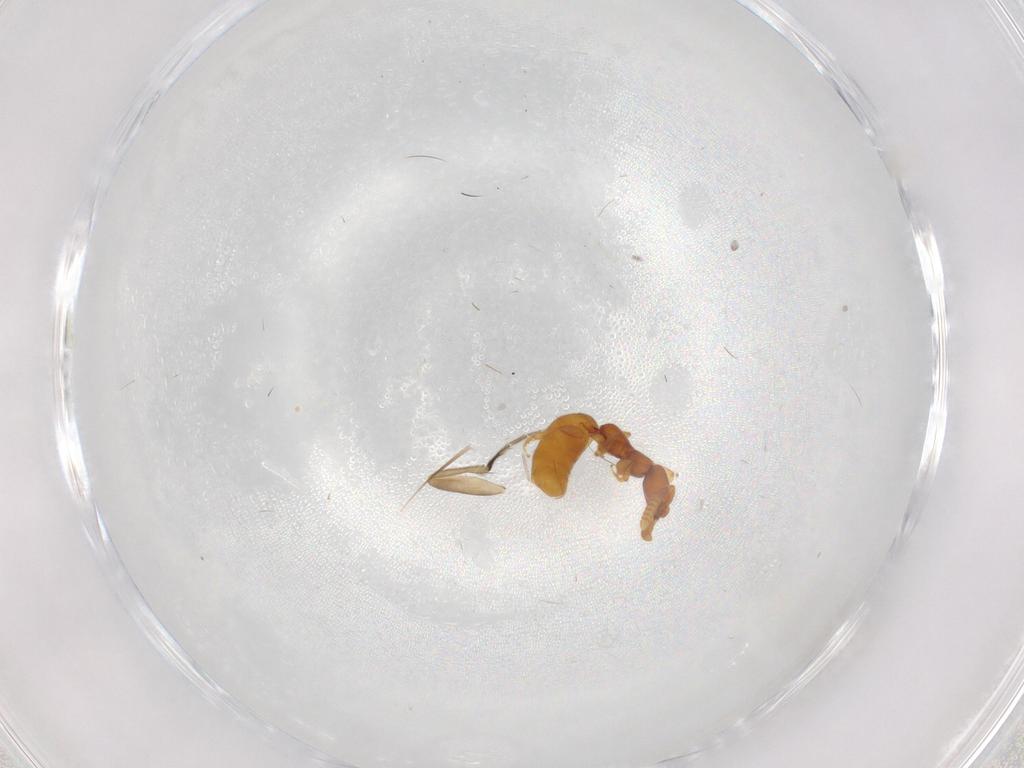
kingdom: Animalia
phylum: Arthropoda
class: Insecta
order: Hymenoptera
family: Bethylidae
